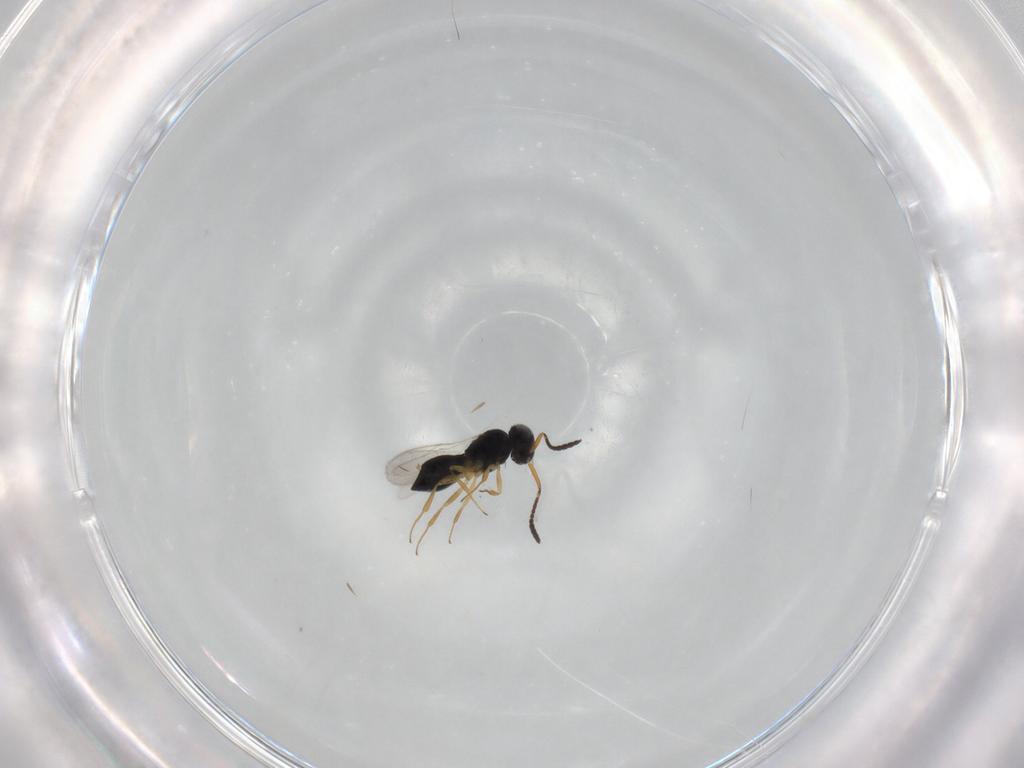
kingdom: Animalia
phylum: Arthropoda
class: Insecta
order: Hymenoptera
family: Scelionidae
